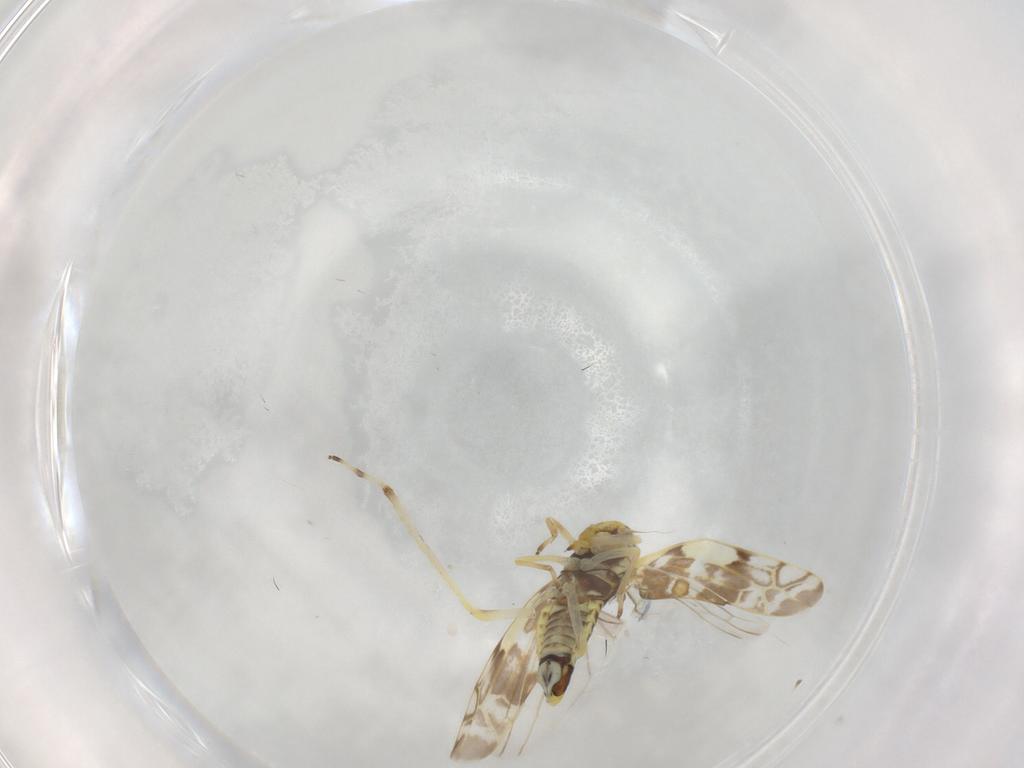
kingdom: Animalia
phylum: Arthropoda
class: Insecta
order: Hemiptera
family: Cicadellidae
